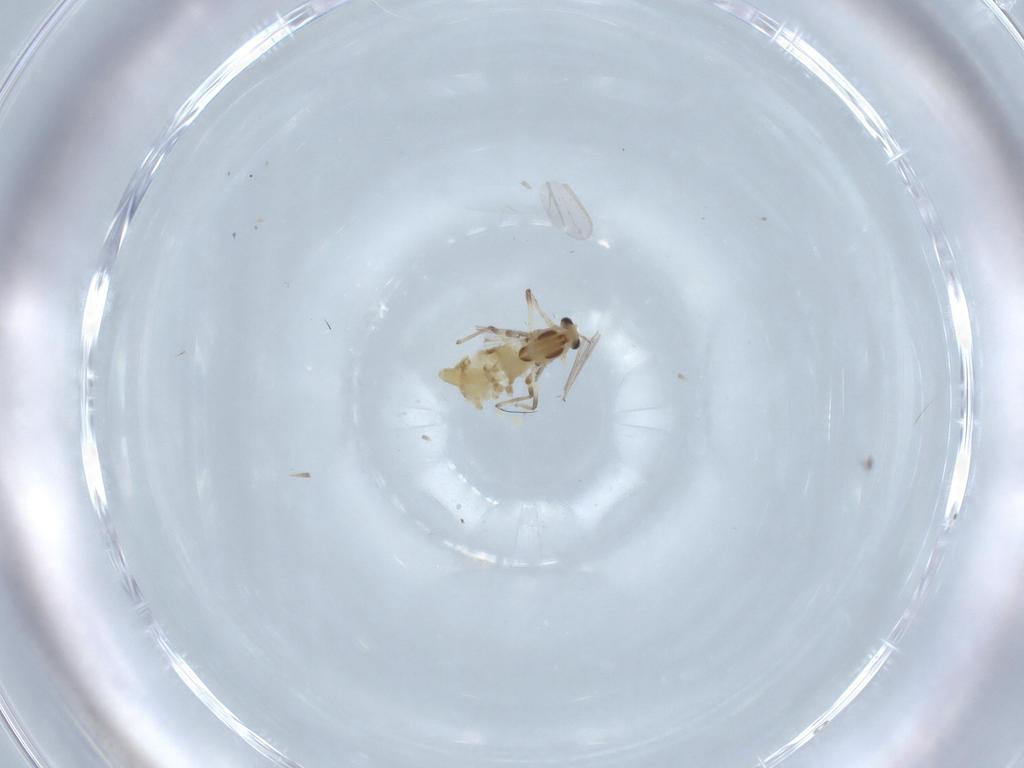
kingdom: Animalia
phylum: Arthropoda
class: Insecta
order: Diptera
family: Chironomidae
